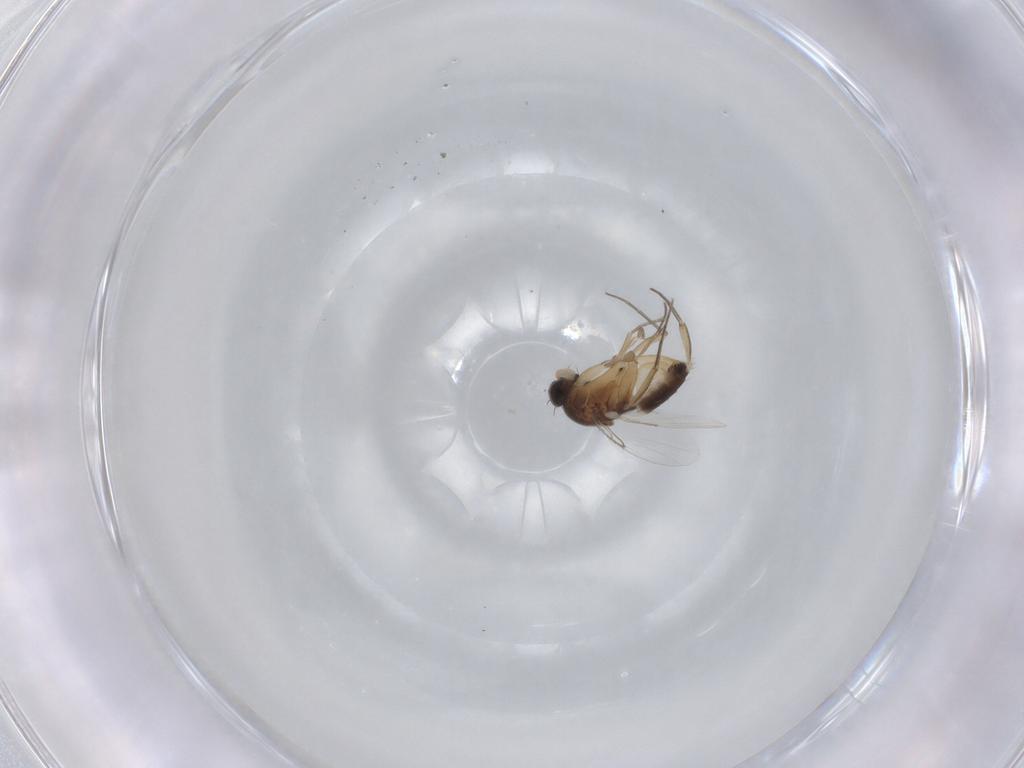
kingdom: Animalia
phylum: Arthropoda
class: Insecta
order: Diptera
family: Phoridae
